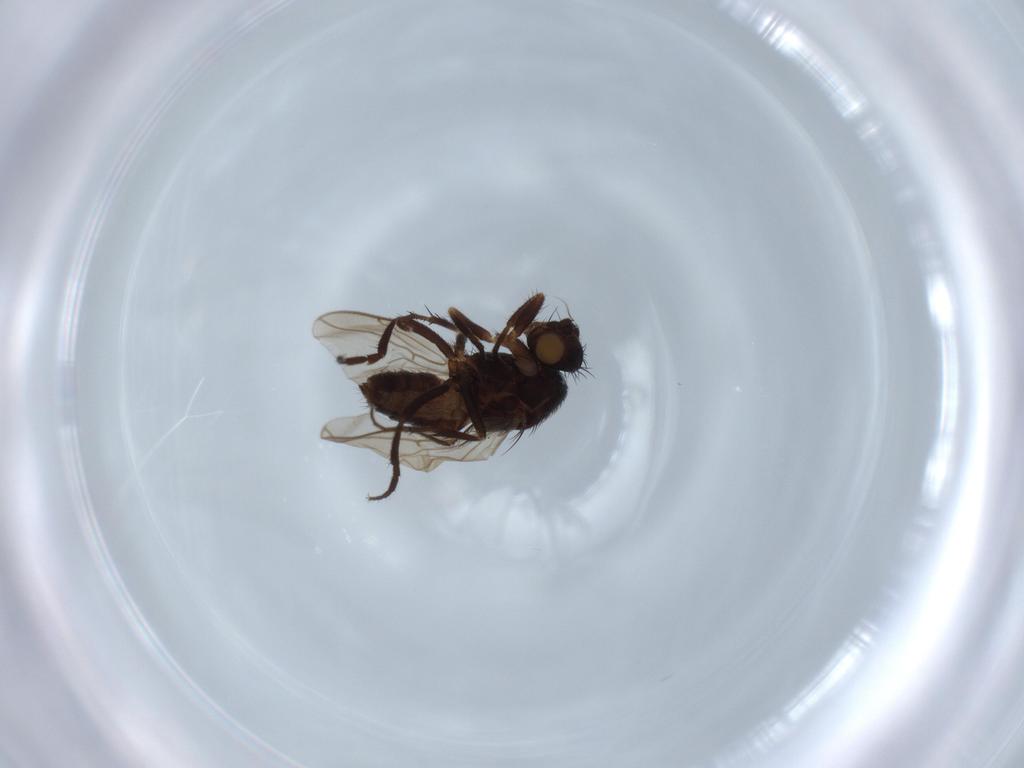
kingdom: Animalia
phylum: Arthropoda
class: Insecta
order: Diptera
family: Sphaeroceridae
